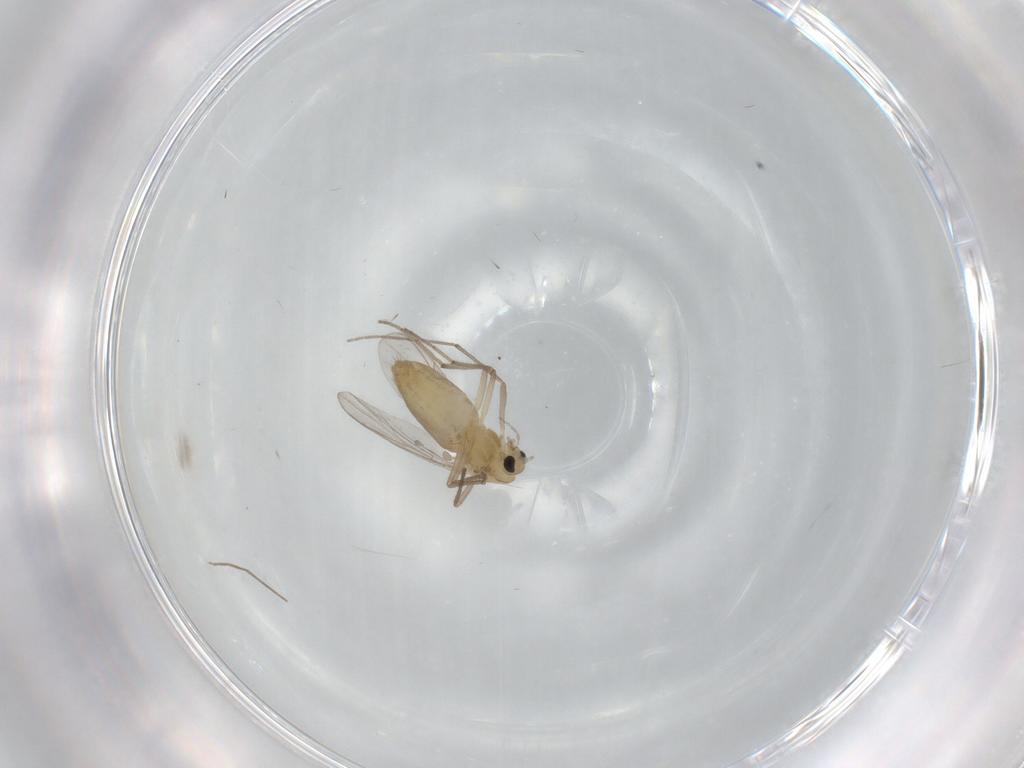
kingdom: Animalia
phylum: Arthropoda
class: Insecta
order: Diptera
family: Chironomidae
